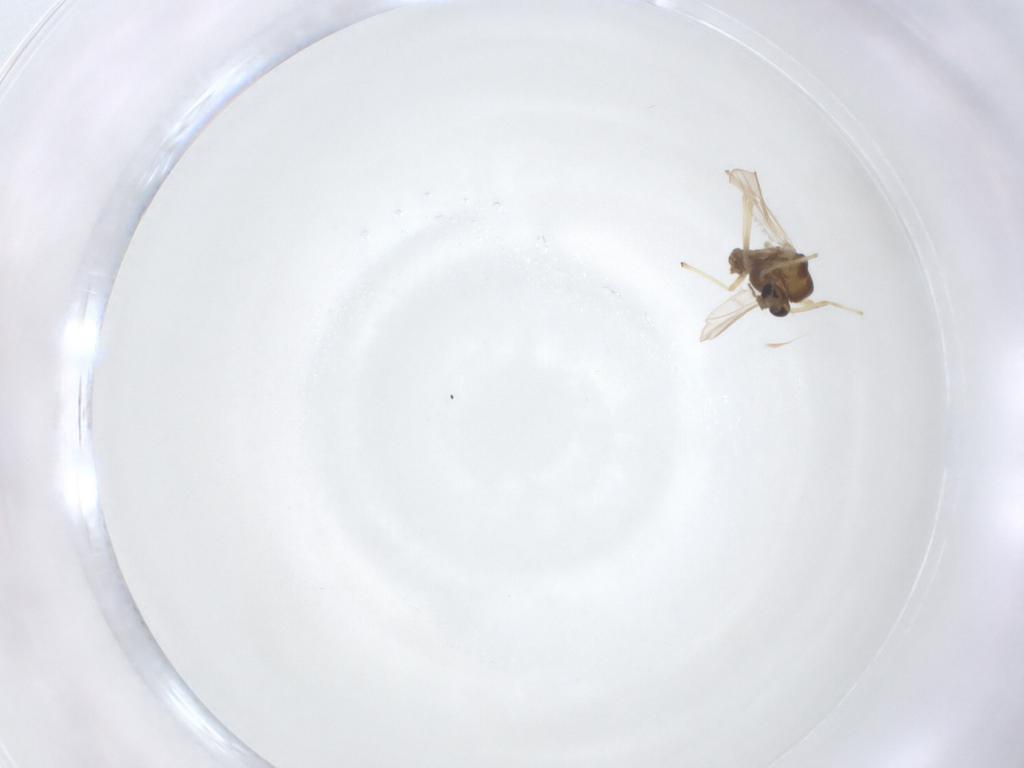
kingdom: Animalia
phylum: Arthropoda
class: Insecta
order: Diptera
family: Chironomidae
